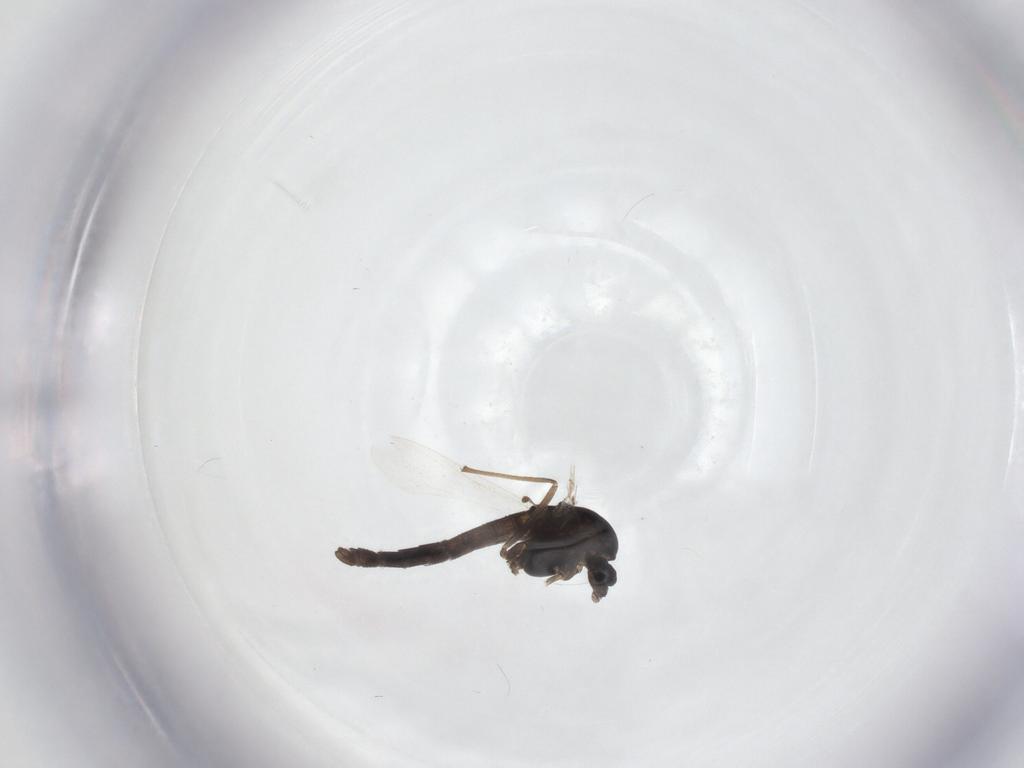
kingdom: Animalia
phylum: Arthropoda
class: Insecta
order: Diptera
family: Chironomidae
